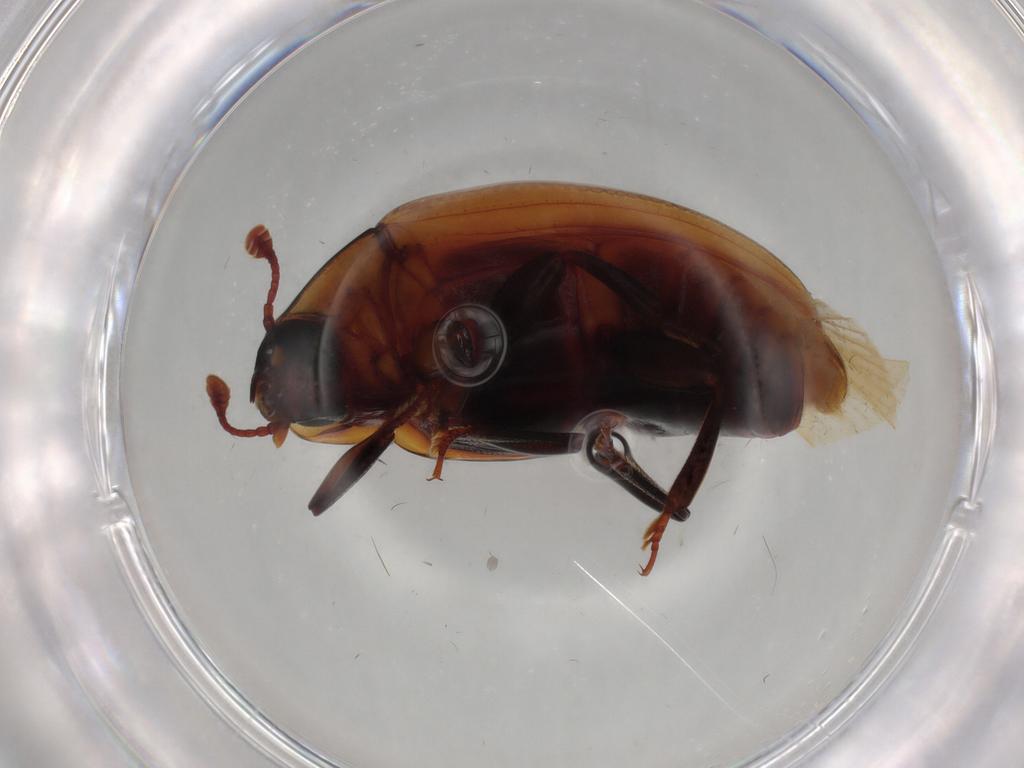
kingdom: Animalia
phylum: Arthropoda
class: Insecta
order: Coleoptera
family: Zopheridae
